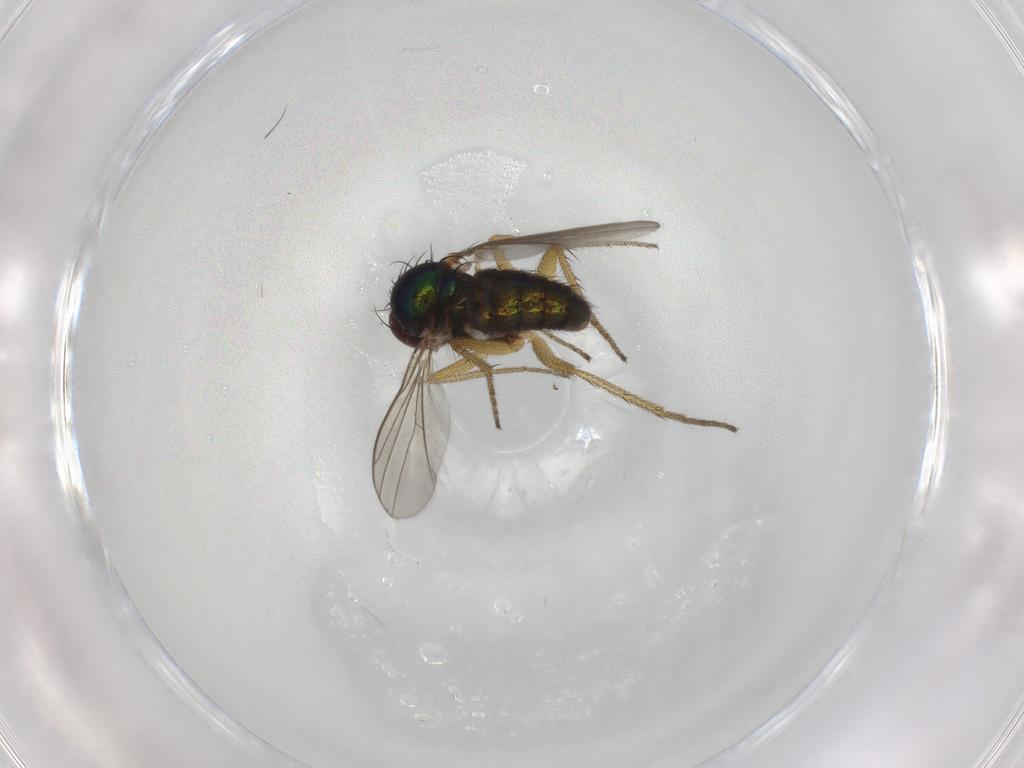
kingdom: Animalia
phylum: Arthropoda
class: Insecta
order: Diptera
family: Dolichopodidae
